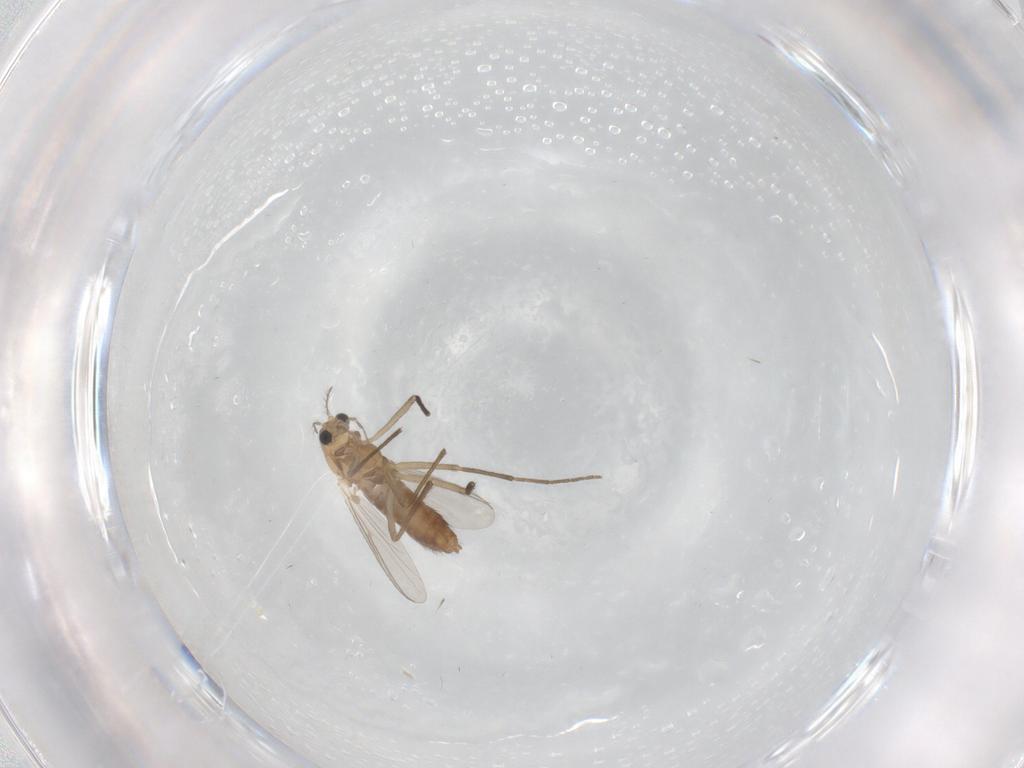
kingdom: Animalia
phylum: Arthropoda
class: Insecta
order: Diptera
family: Chironomidae
